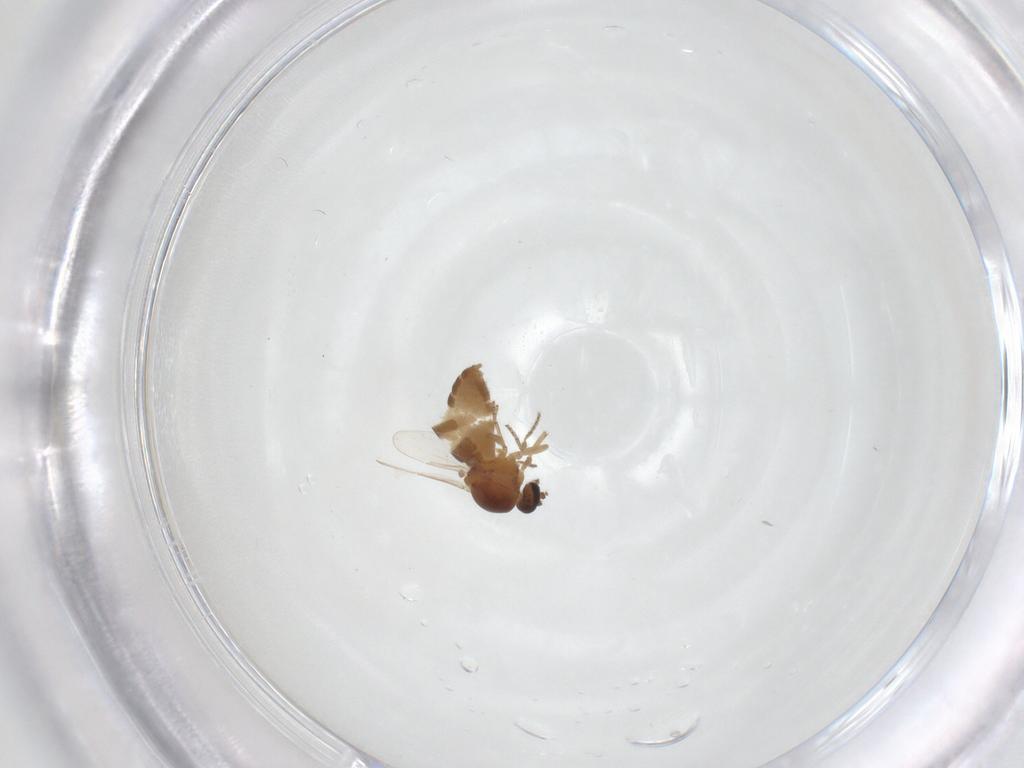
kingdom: Animalia
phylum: Arthropoda
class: Insecta
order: Diptera
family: Ceratopogonidae
